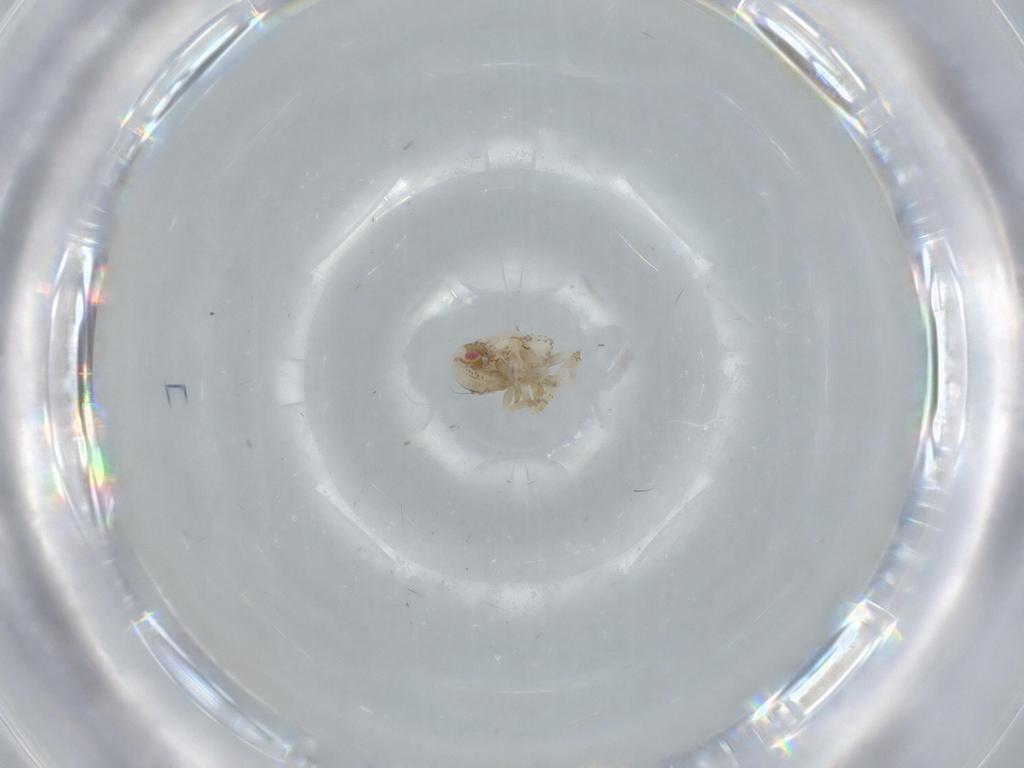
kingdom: Animalia
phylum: Arthropoda
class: Insecta
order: Hemiptera
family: Acanaloniidae
